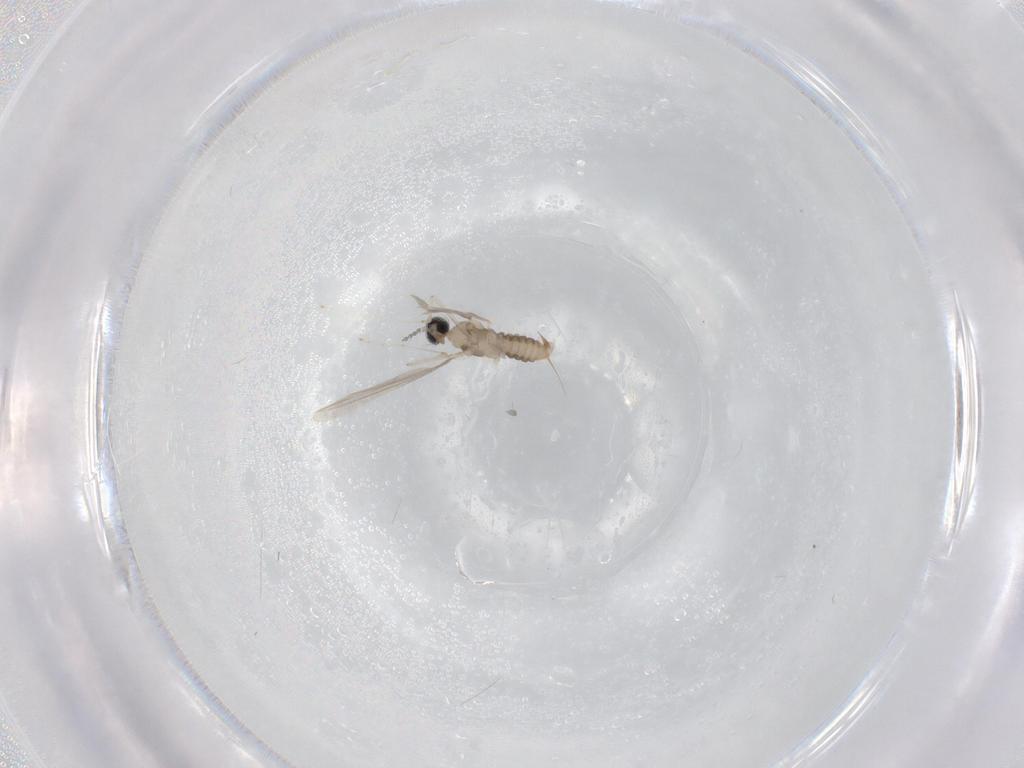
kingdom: Animalia
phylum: Arthropoda
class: Insecta
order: Diptera
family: Cecidomyiidae
